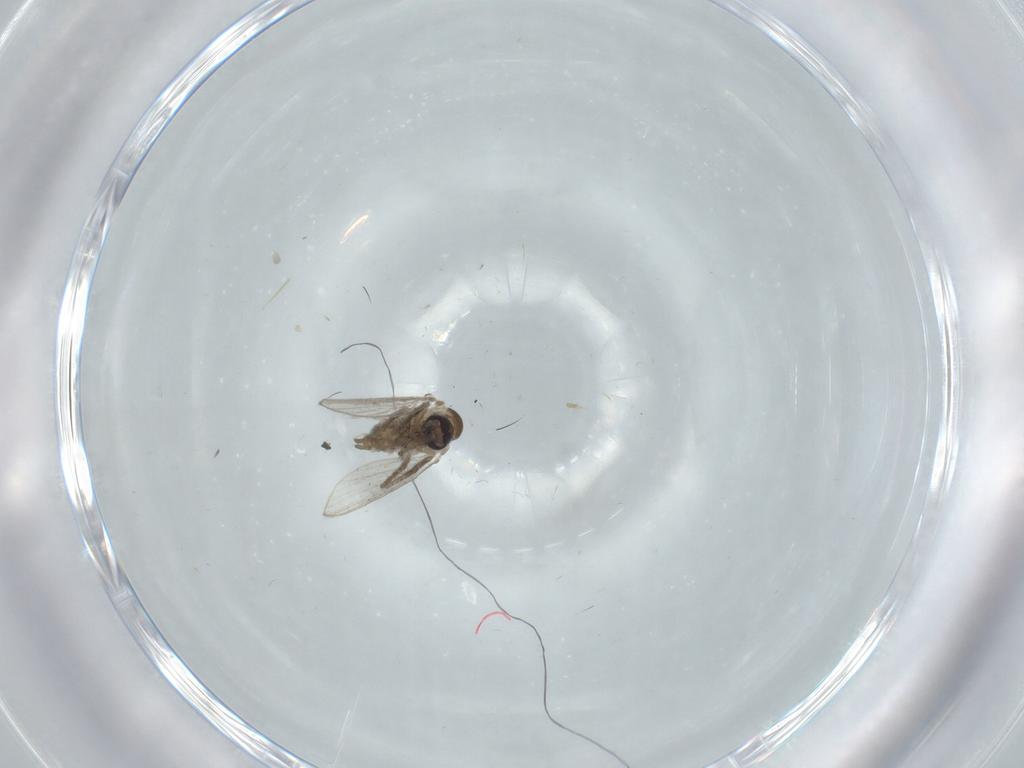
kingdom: Animalia
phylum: Arthropoda
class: Insecta
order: Diptera
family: Psychodidae
